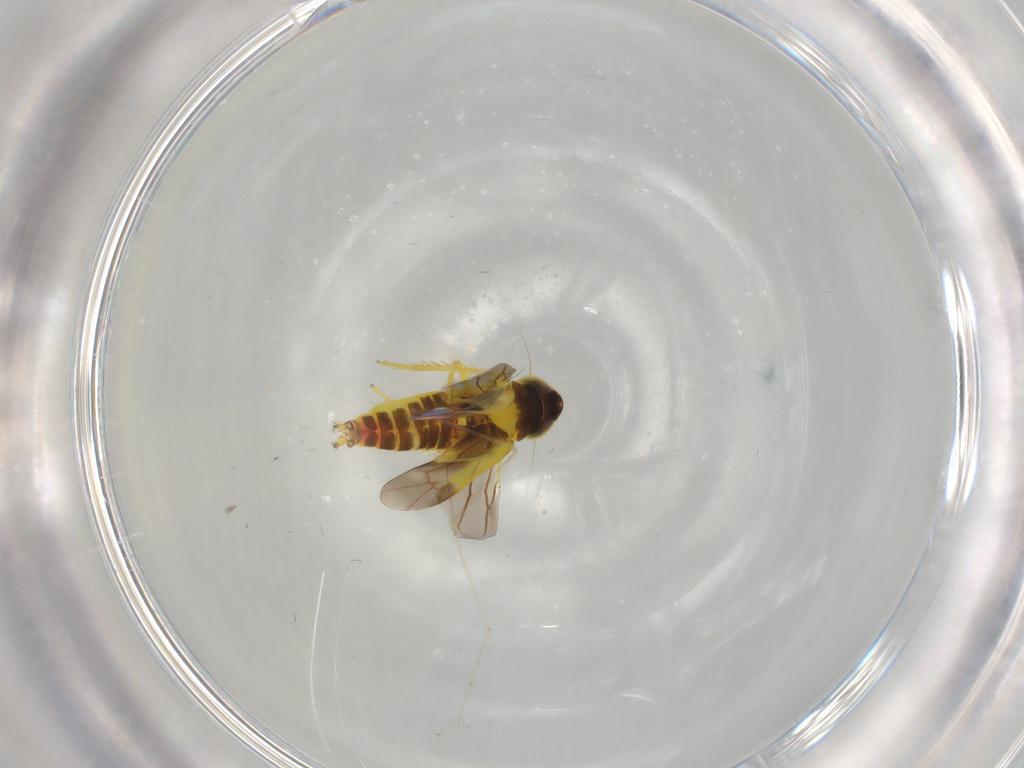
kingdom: Animalia
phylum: Arthropoda
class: Insecta
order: Hemiptera
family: Cicadellidae
